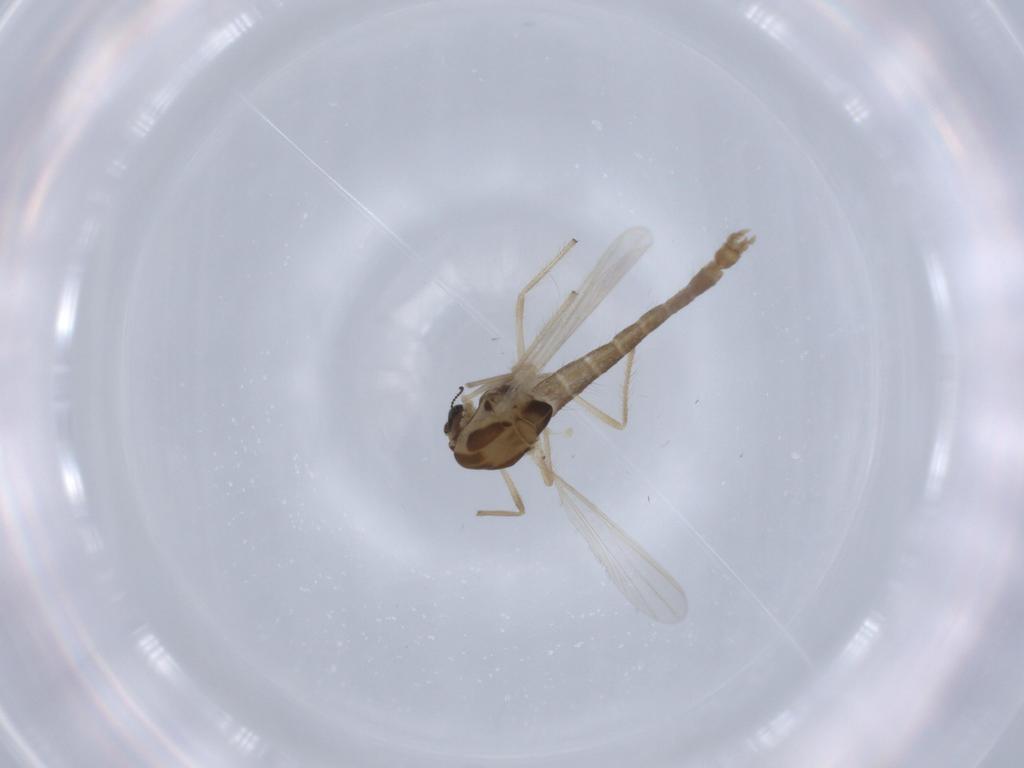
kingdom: Animalia
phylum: Arthropoda
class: Insecta
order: Diptera
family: Chironomidae
